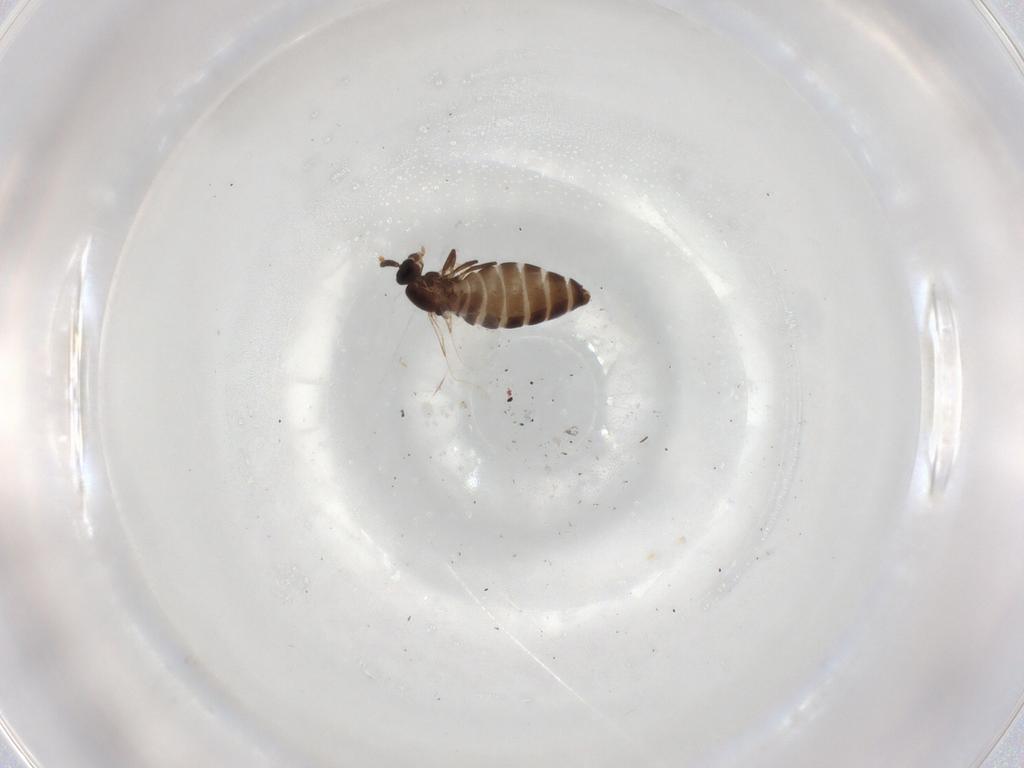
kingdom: Animalia
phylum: Arthropoda
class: Insecta
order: Diptera
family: Scatopsidae
